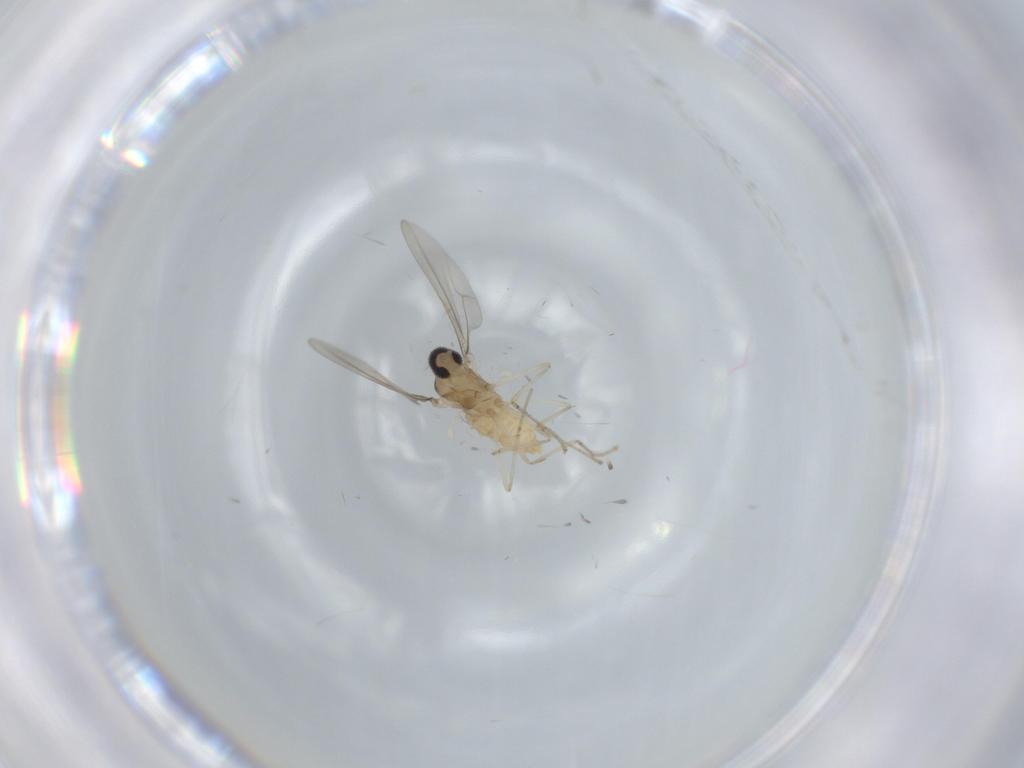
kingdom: Animalia
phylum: Arthropoda
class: Insecta
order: Diptera
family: Cecidomyiidae
